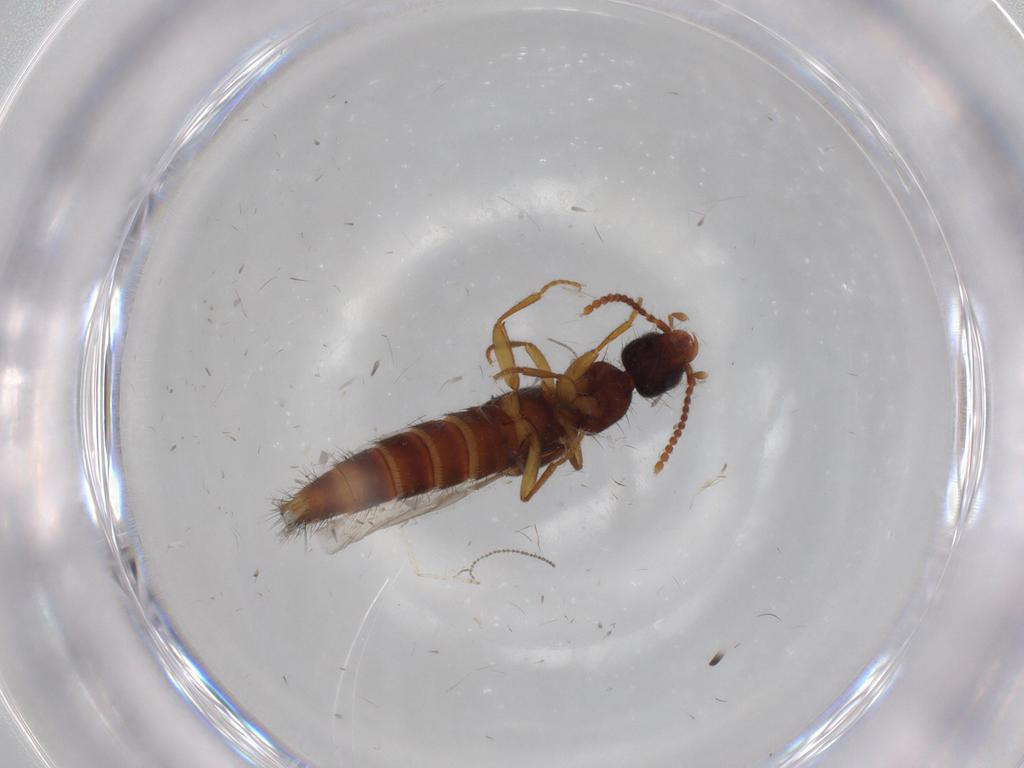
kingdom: Animalia
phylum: Arthropoda
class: Insecta
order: Coleoptera
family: Staphylinidae
